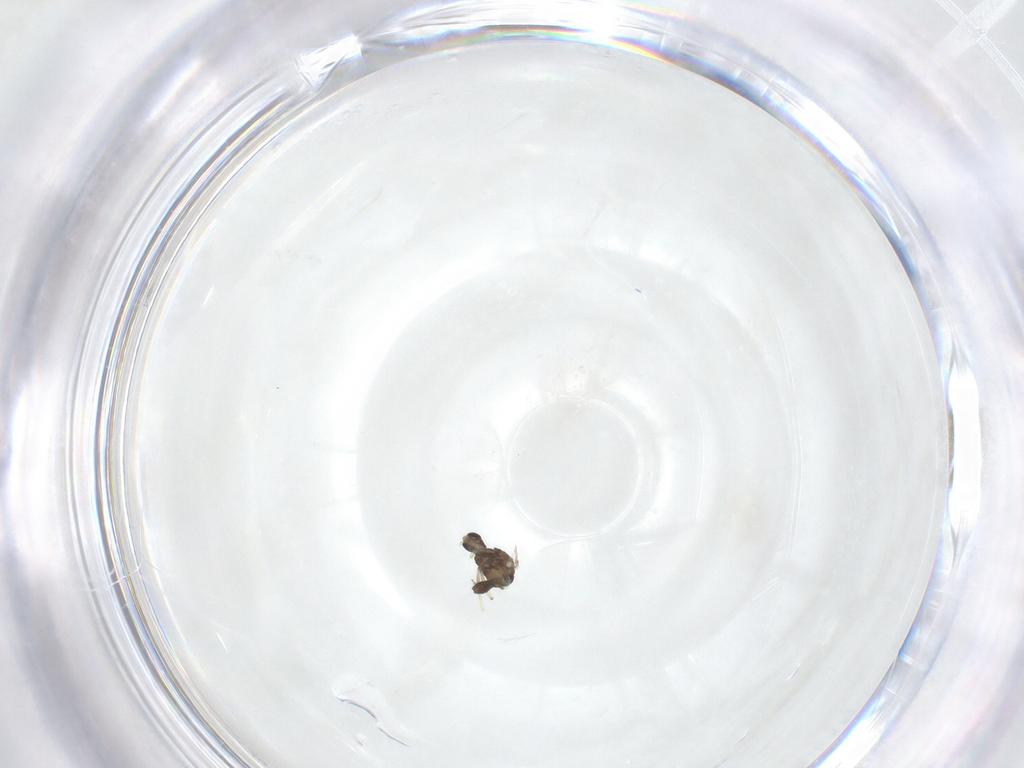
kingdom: Animalia
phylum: Arthropoda
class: Insecta
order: Diptera
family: Chironomidae
